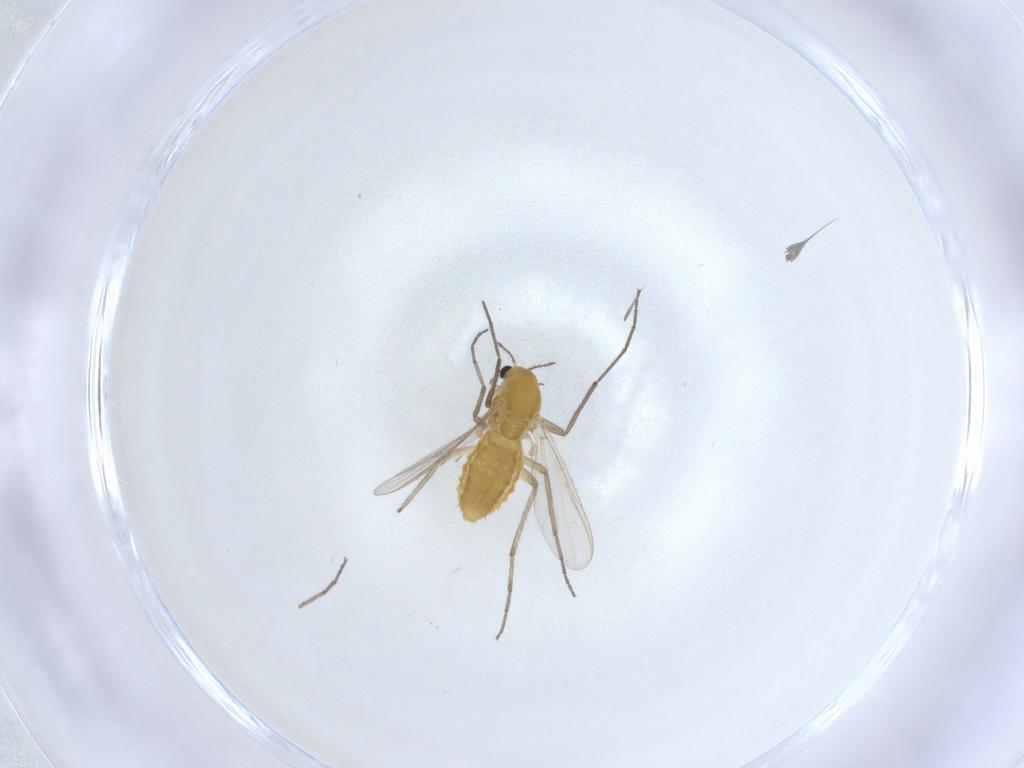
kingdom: Animalia
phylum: Arthropoda
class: Insecta
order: Diptera
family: Chironomidae
